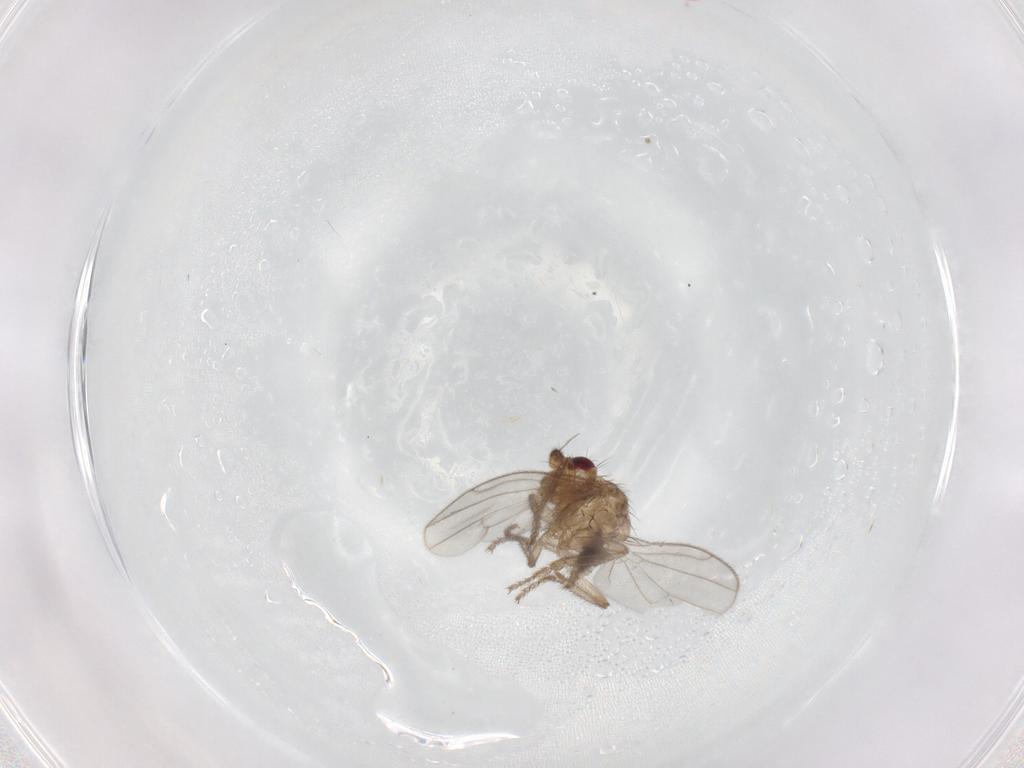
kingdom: Animalia
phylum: Arthropoda
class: Insecta
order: Diptera
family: Sphaeroceridae
